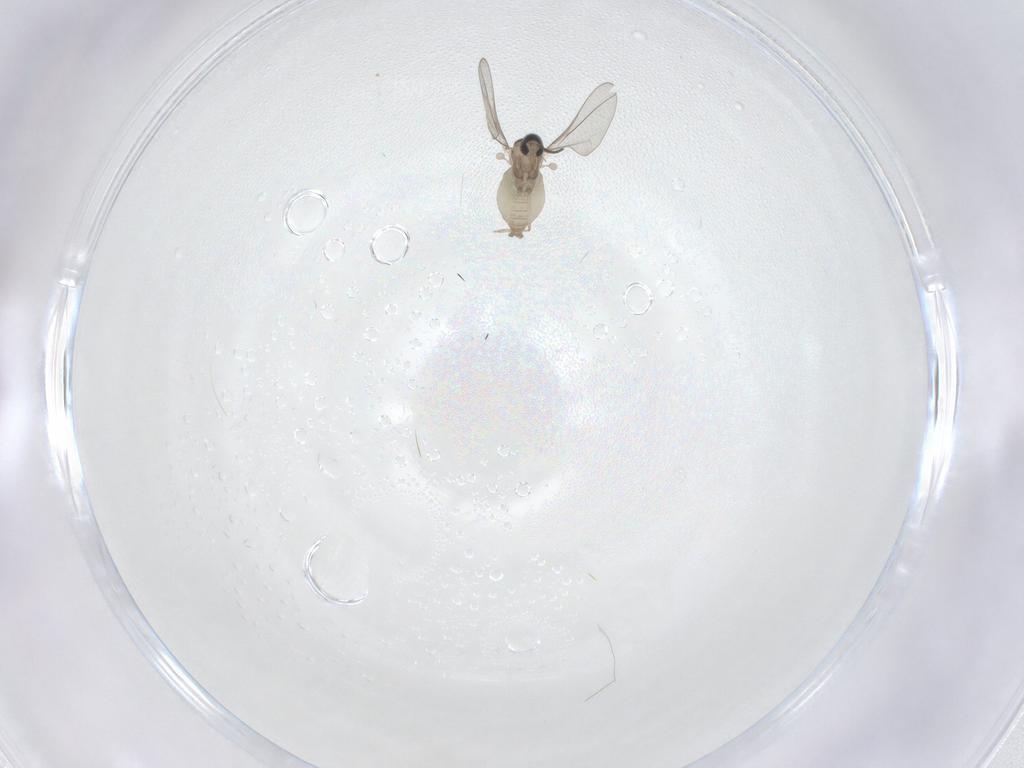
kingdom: Animalia
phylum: Arthropoda
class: Insecta
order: Diptera
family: Cecidomyiidae
